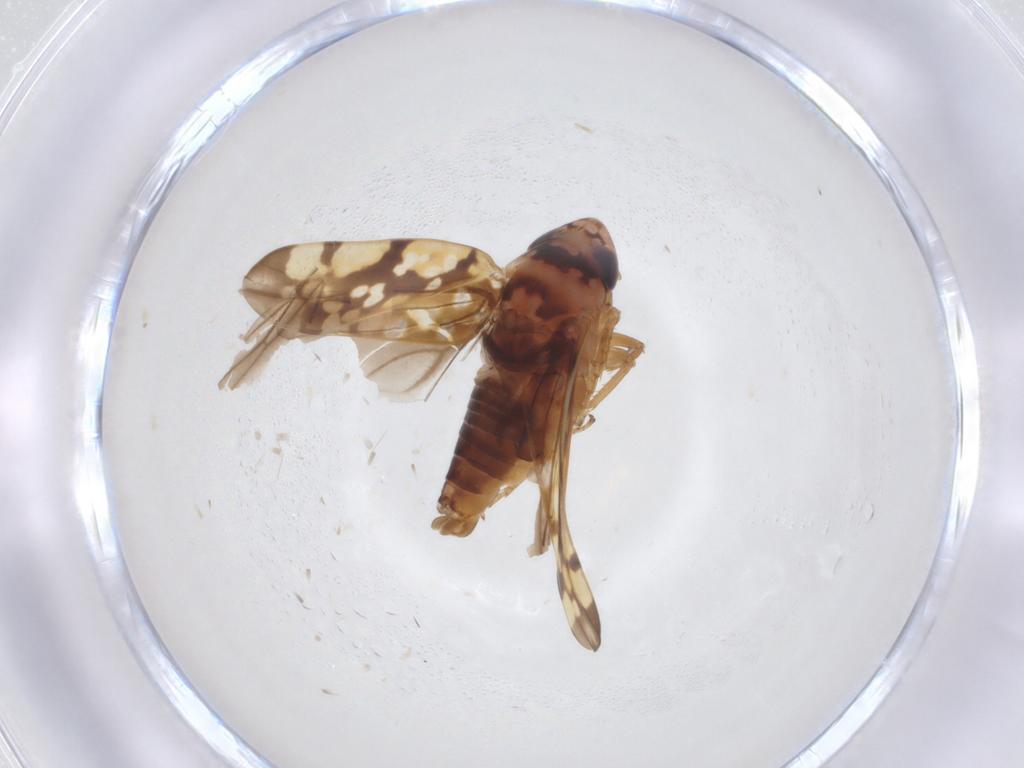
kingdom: Animalia
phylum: Arthropoda
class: Insecta
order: Hemiptera
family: Cicadellidae
